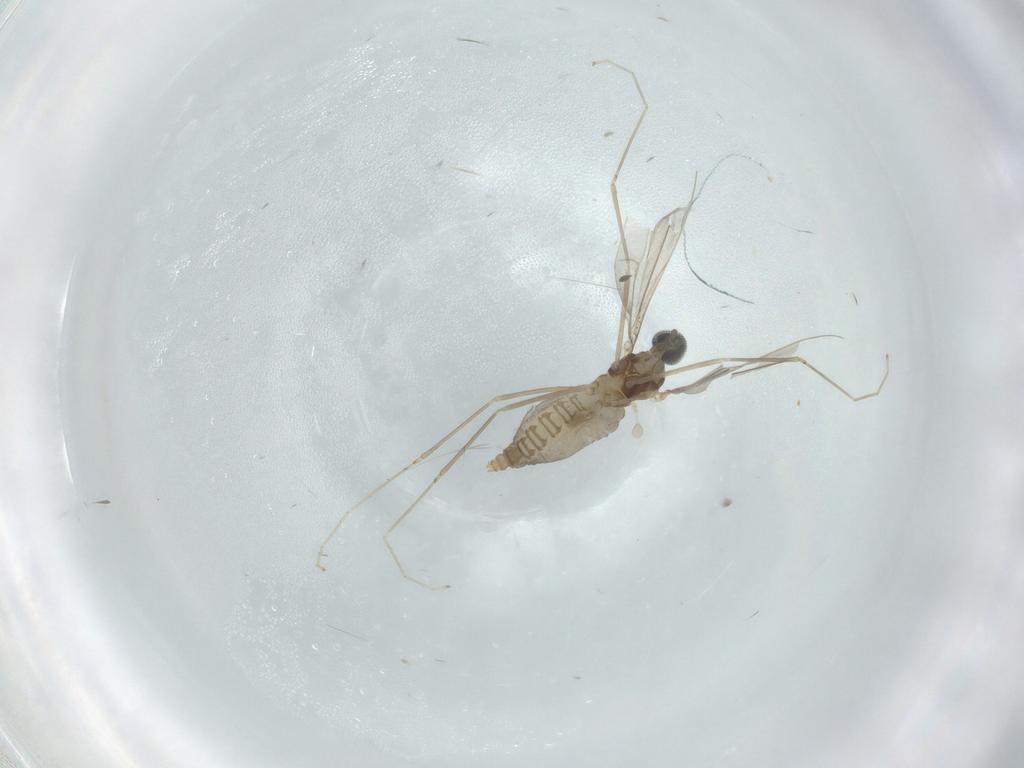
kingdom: Animalia
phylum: Arthropoda
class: Insecta
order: Diptera
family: Cecidomyiidae
